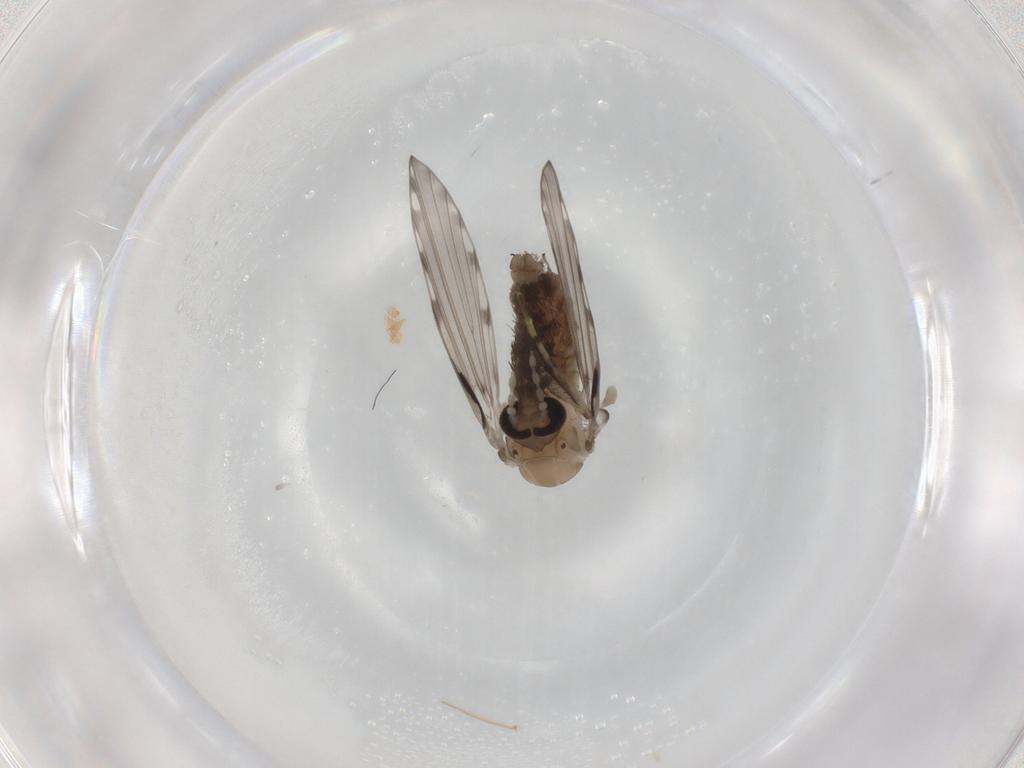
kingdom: Animalia
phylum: Arthropoda
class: Insecta
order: Diptera
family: Psychodidae
